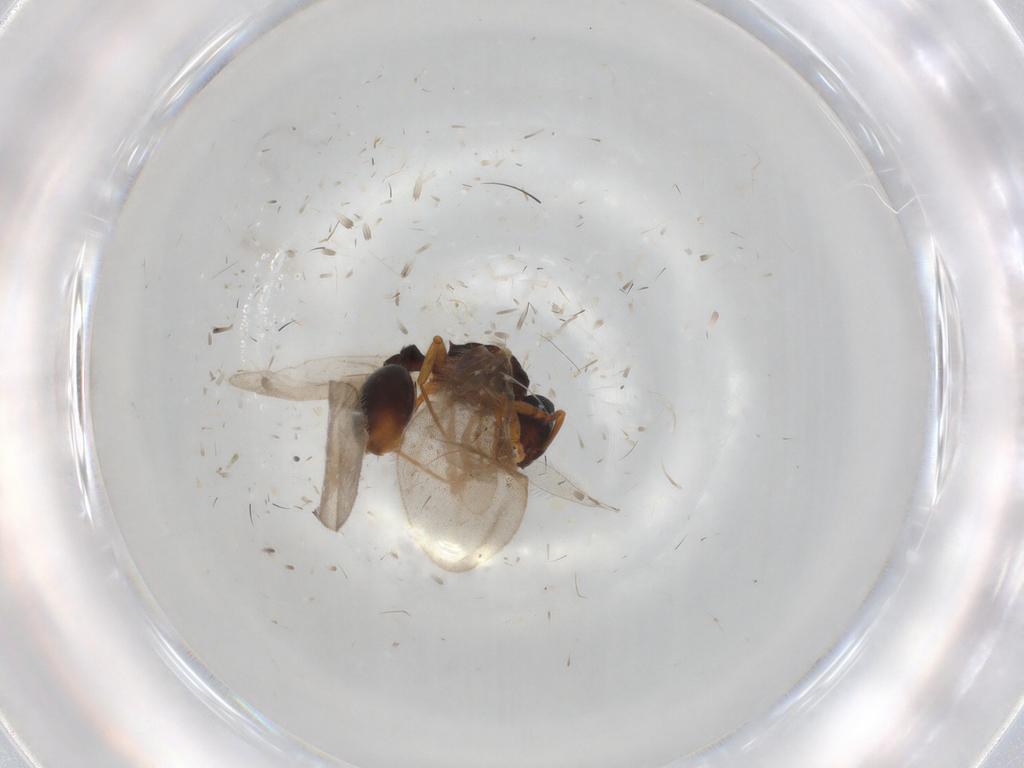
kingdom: Animalia
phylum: Arthropoda
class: Insecta
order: Hymenoptera
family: Formicidae
